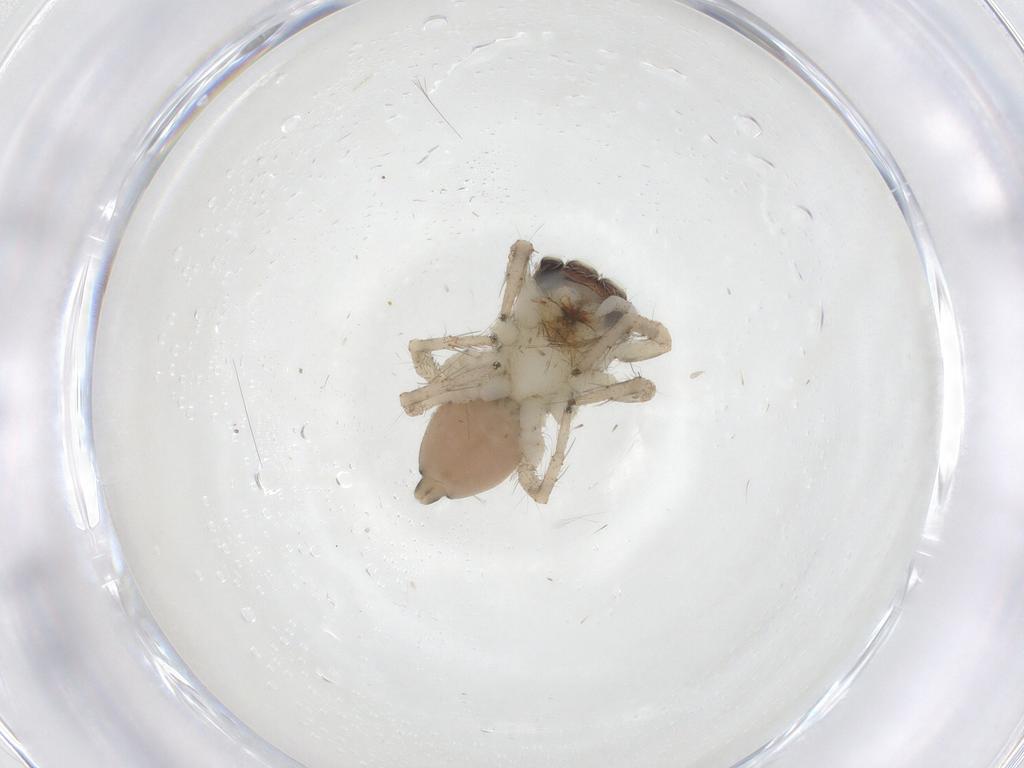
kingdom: Animalia
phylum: Arthropoda
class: Arachnida
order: Araneae
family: Salticidae
